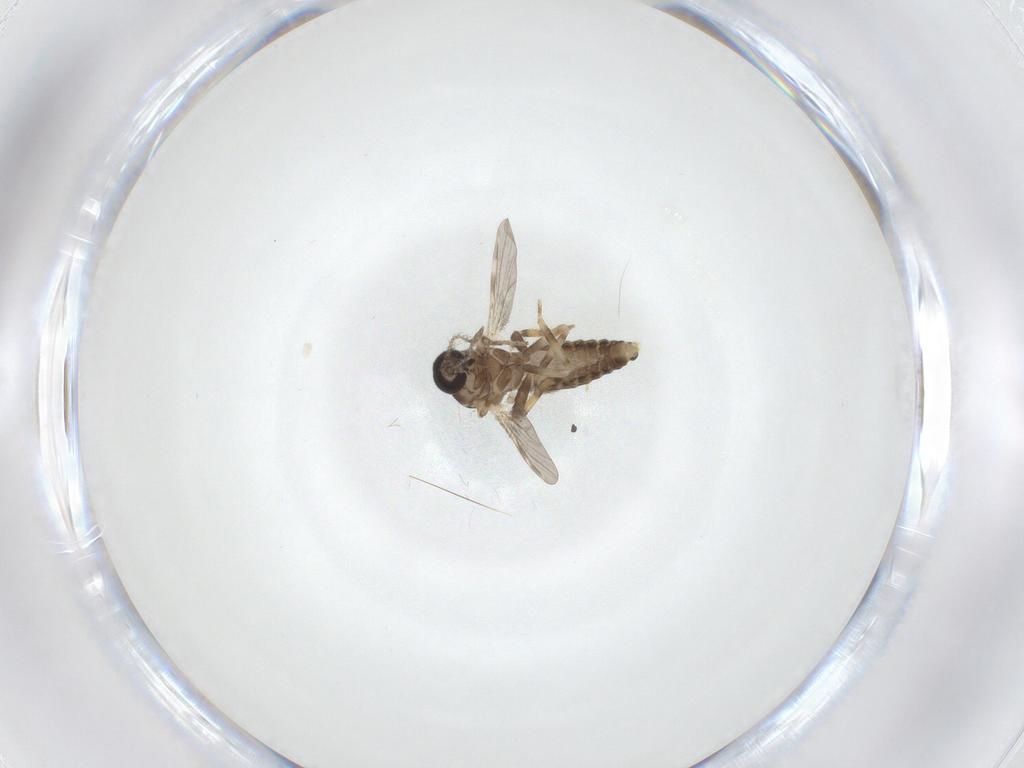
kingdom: Animalia
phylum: Arthropoda
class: Insecta
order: Diptera
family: Ceratopogonidae
